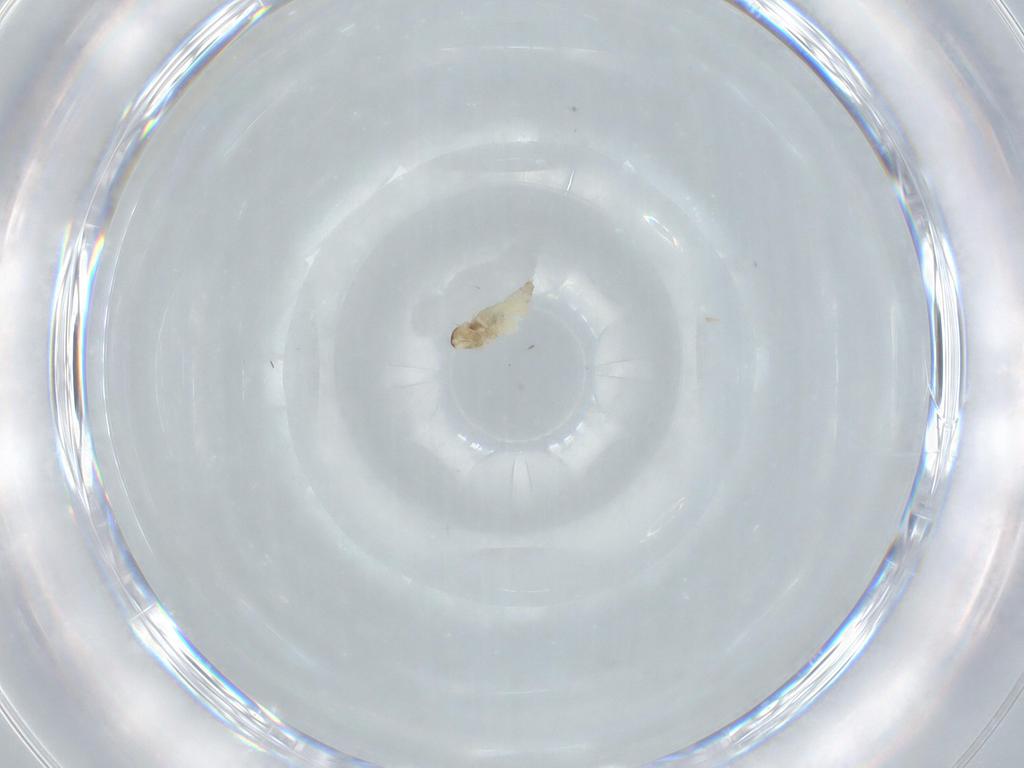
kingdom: Animalia
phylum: Arthropoda
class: Insecta
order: Diptera
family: Cecidomyiidae
